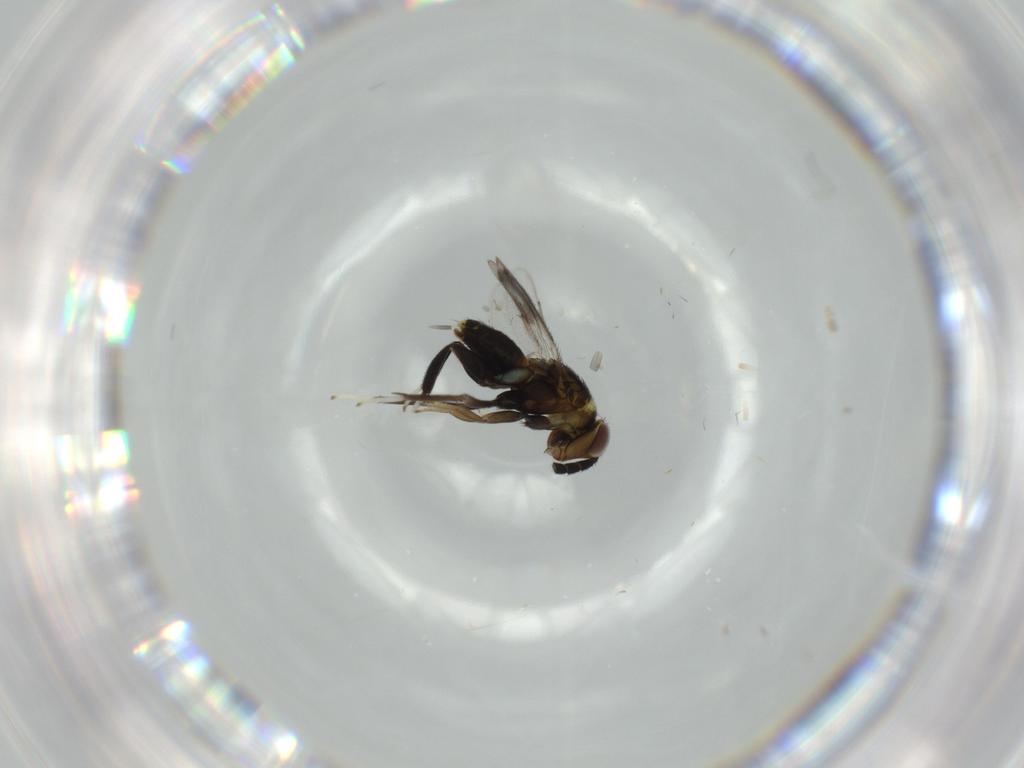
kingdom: Animalia
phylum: Arthropoda
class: Insecta
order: Hymenoptera
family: Aphelinidae
